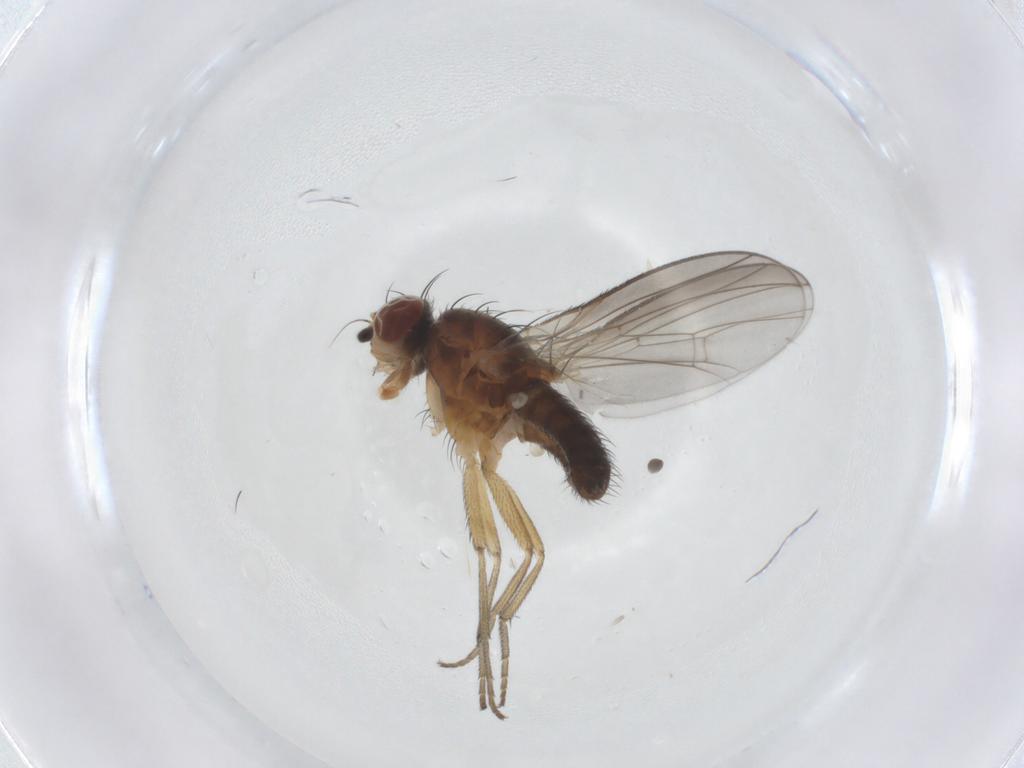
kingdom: Animalia
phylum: Arthropoda
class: Insecta
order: Diptera
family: Heleomyzidae
